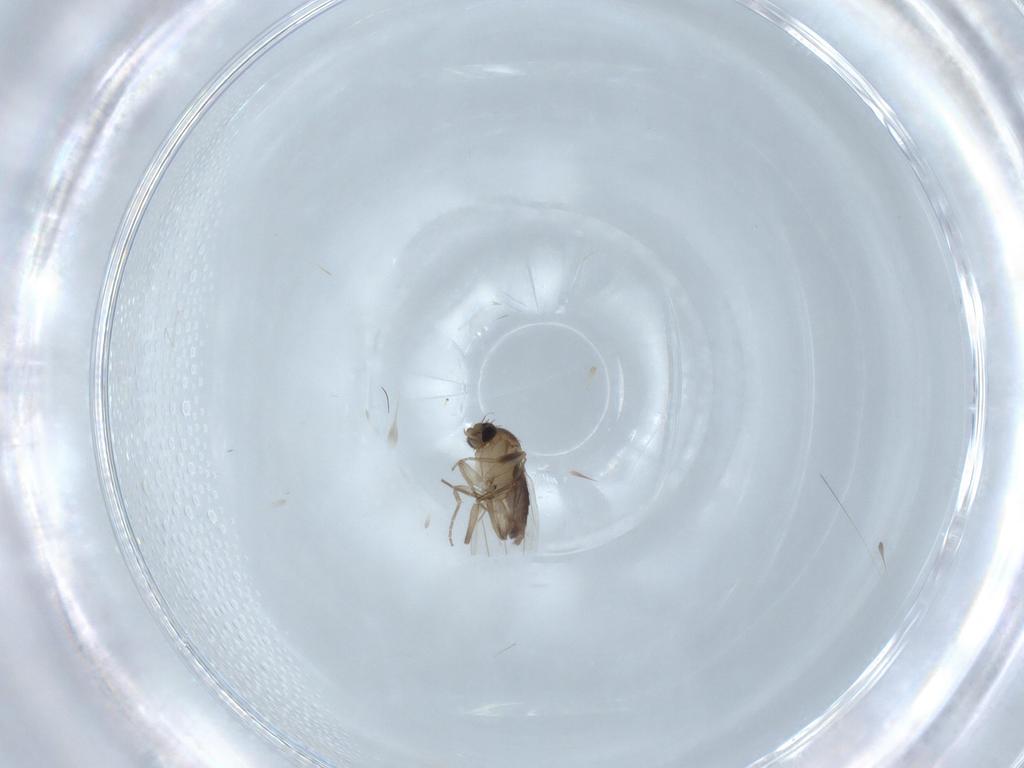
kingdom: Animalia
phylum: Arthropoda
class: Insecta
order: Diptera
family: Phoridae
